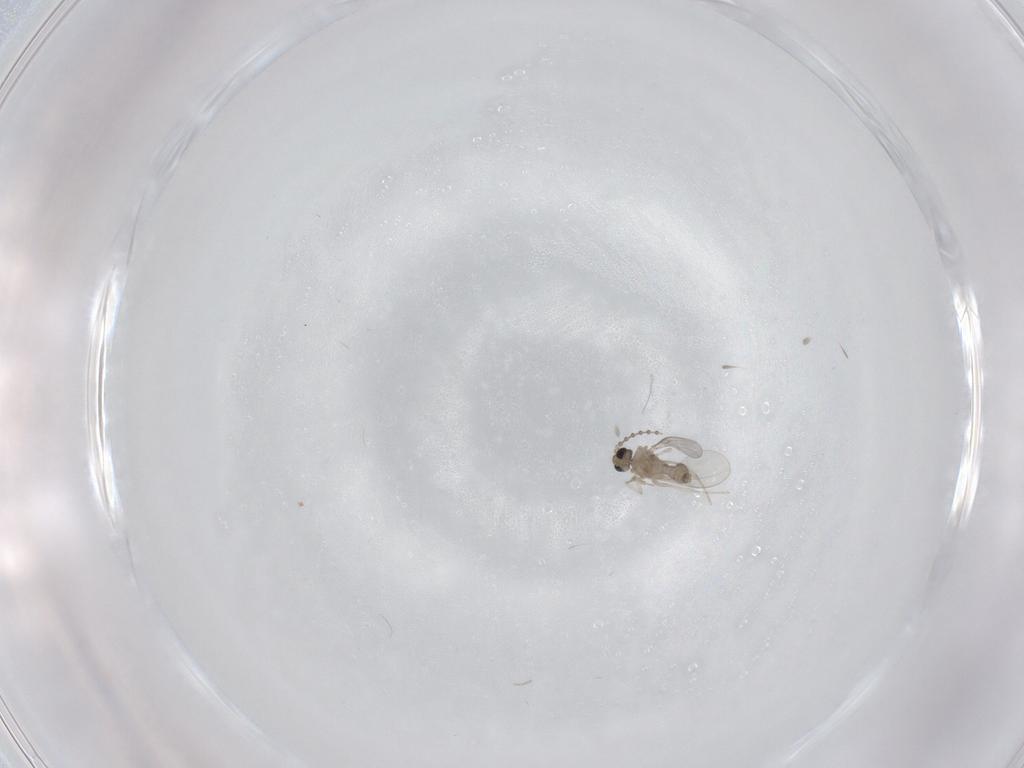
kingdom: Animalia
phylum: Arthropoda
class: Insecta
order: Diptera
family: Cecidomyiidae
